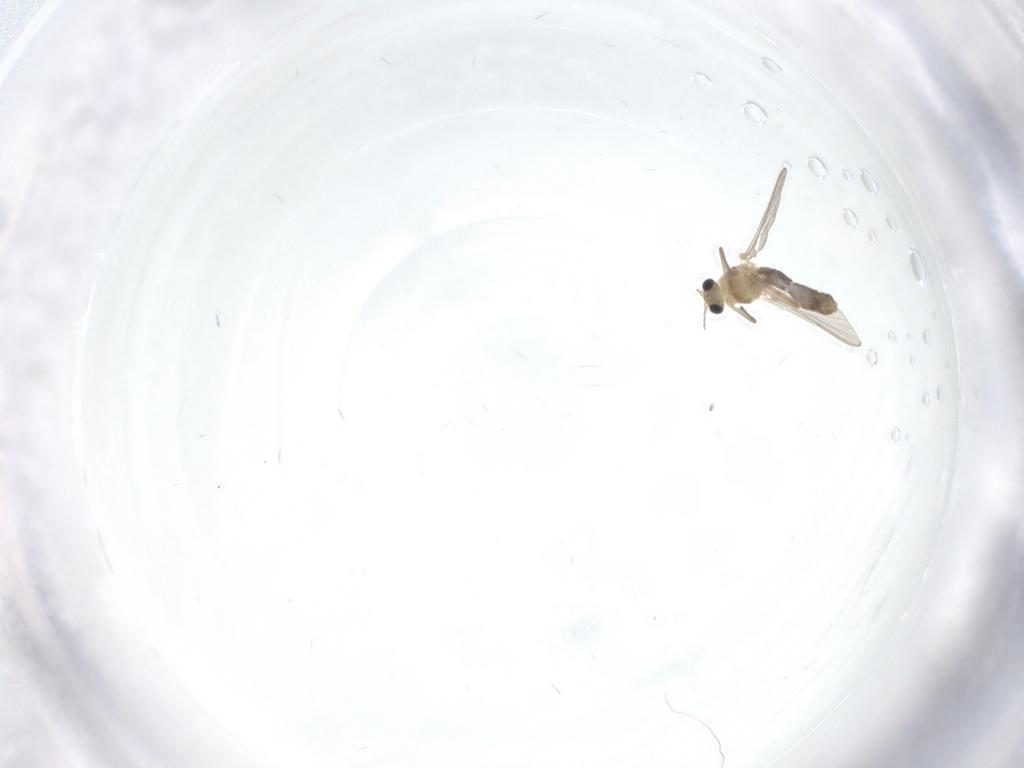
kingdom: Animalia
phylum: Arthropoda
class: Insecta
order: Diptera
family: Chironomidae
